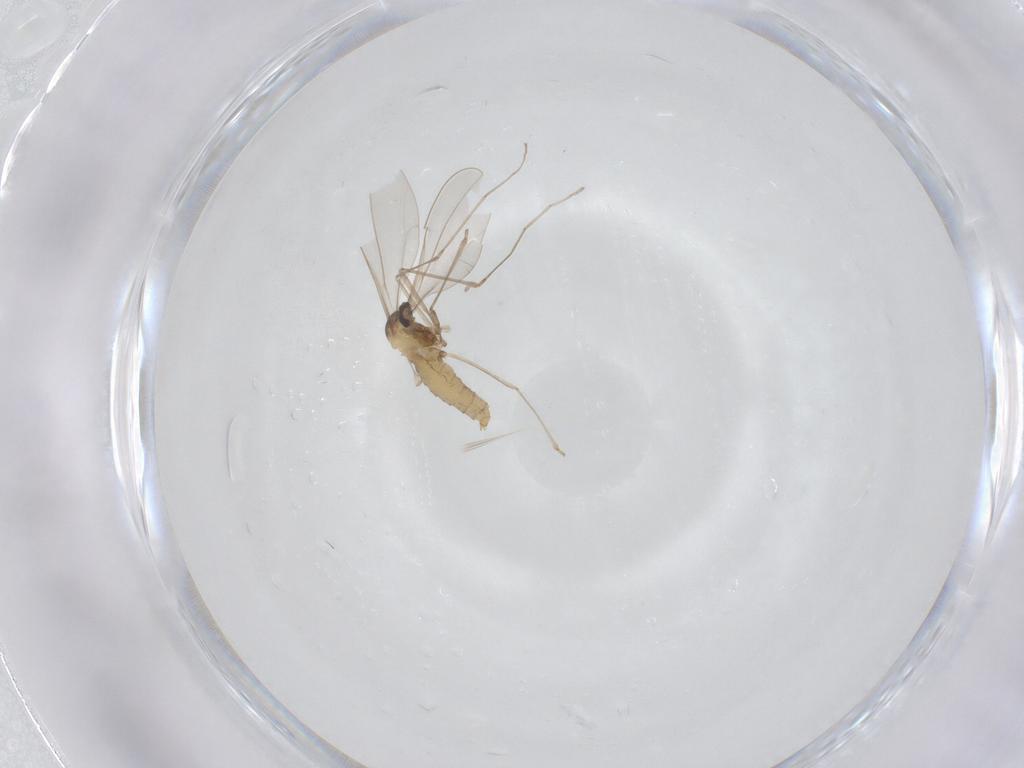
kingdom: Animalia
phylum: Arthropoda
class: Insecta
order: Diptera
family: Cecidomyiidae
